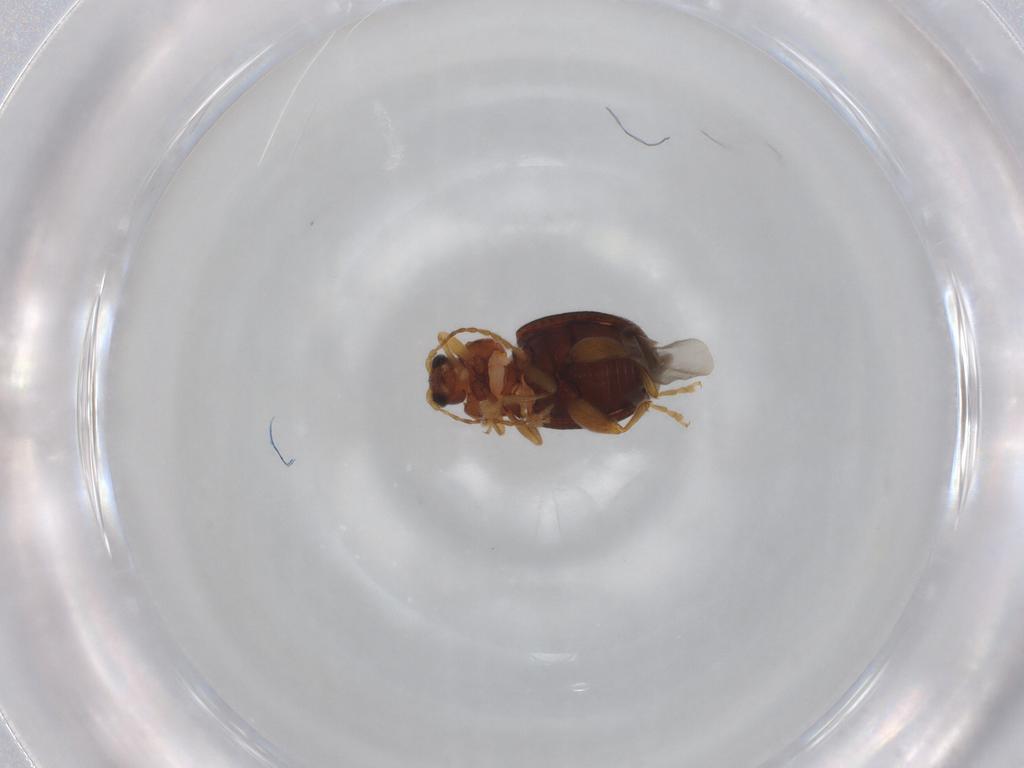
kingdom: Animalia
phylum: Arthropoda
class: Insecta
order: Coleoptera
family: Chrysomelidae
